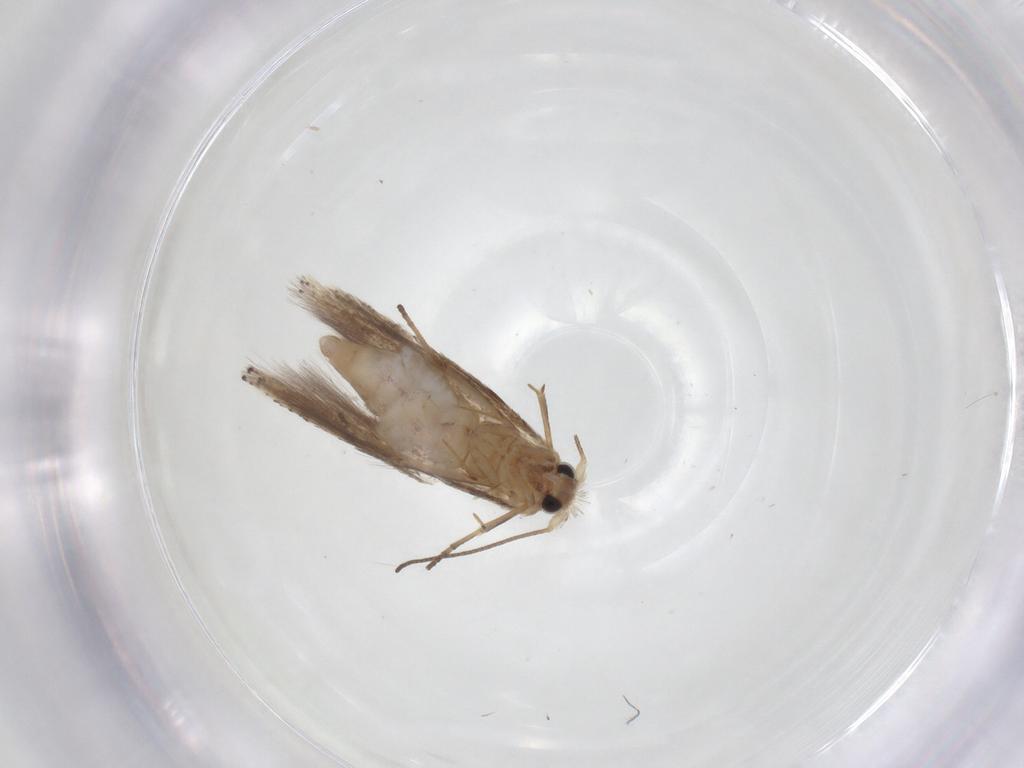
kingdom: Animalia
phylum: Arthropoda
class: Insecta
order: Lepidoptera
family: Bucculatricidae
